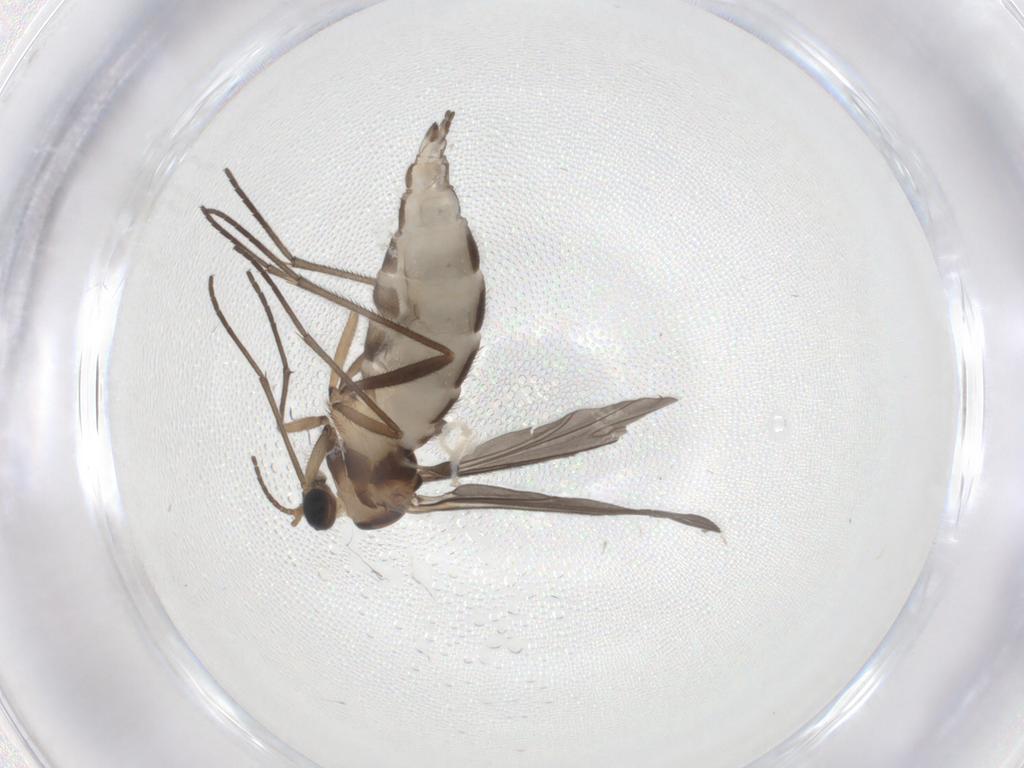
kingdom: Animalia
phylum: Arthropoda
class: Insecta
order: Diptera
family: Sciaridae
